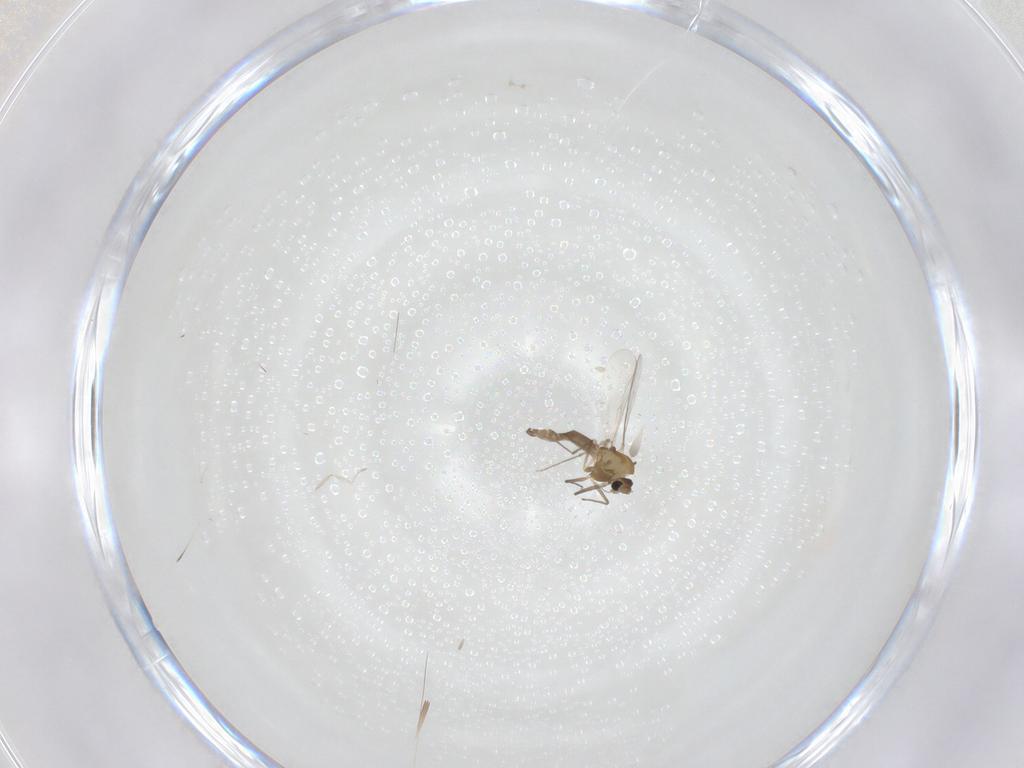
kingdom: Animalia
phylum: Arthropoda
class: Insecta
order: Diptera
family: Chironomidae
